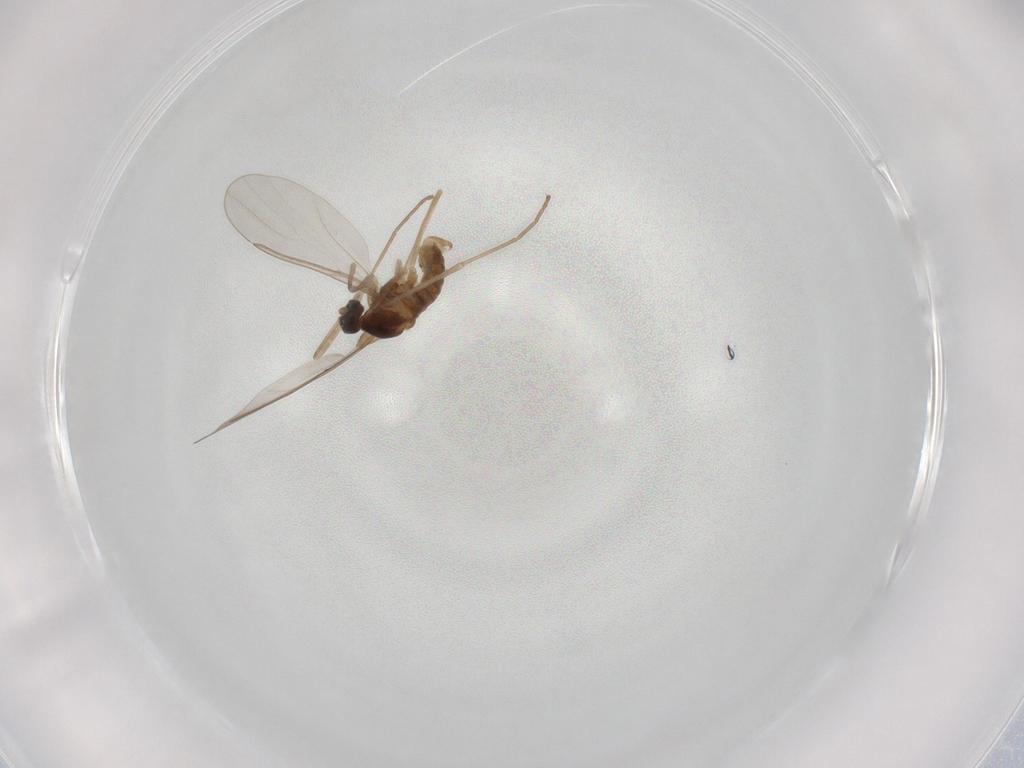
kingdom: Animalia
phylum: Arthropoda
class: Insecta
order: Diptera
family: Cecidomyiidae
